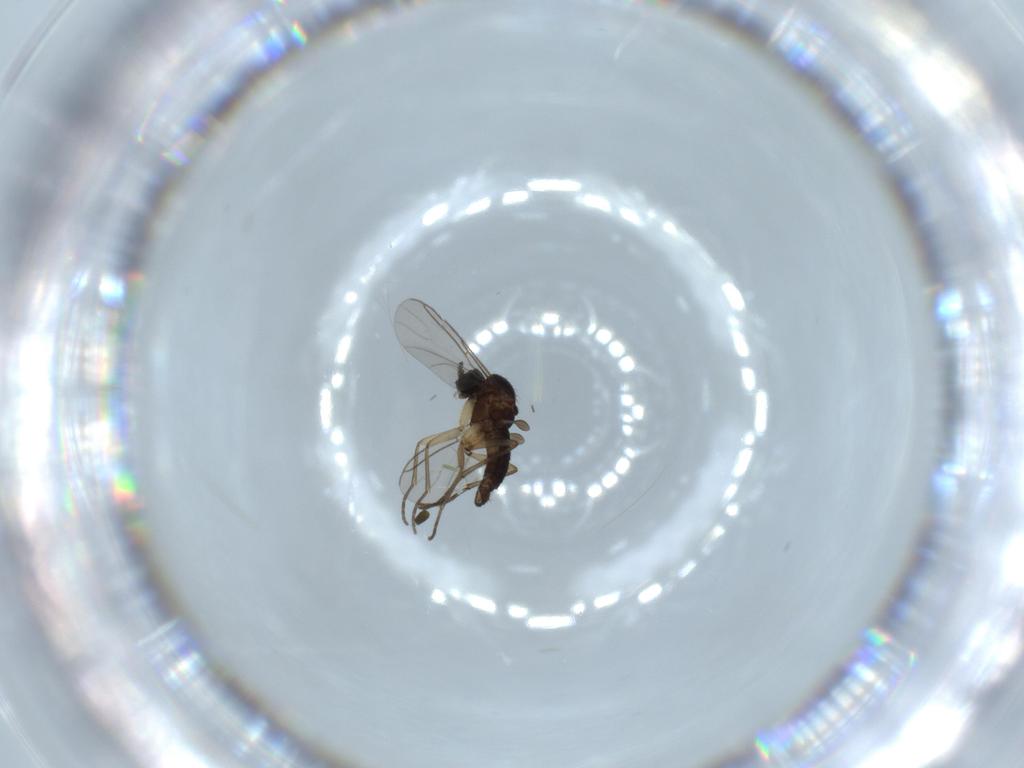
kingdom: Animalia
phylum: Arthropoda
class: Insecta
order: Diptera
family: Sciaridae
